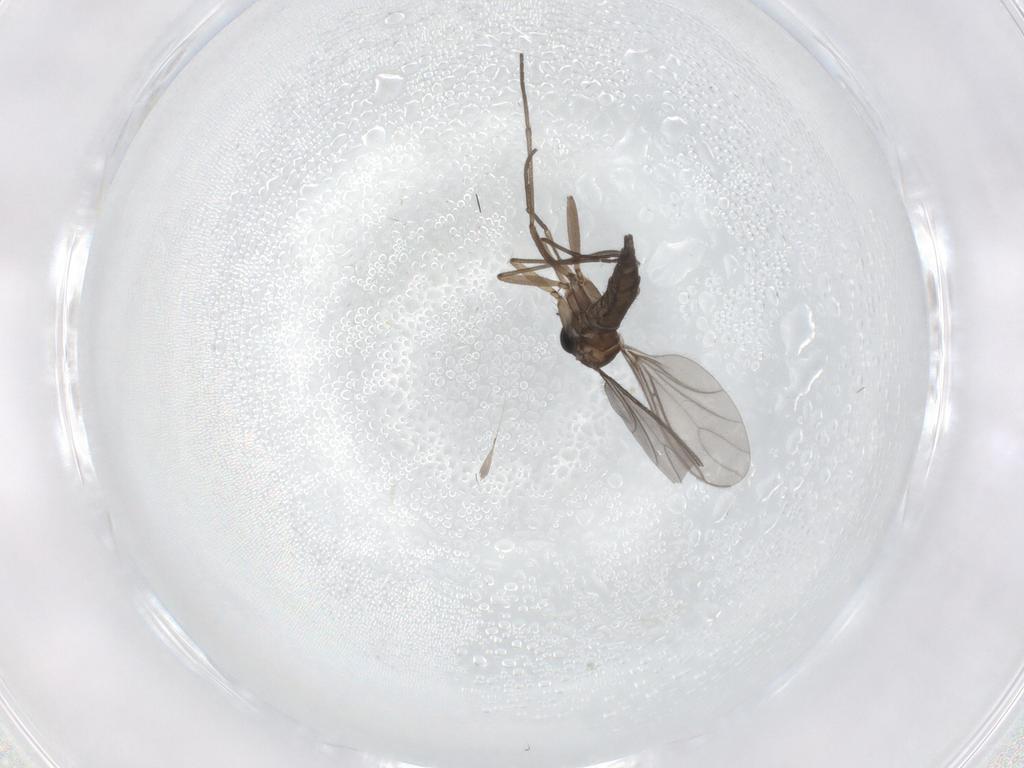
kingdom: Animalia
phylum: Arthropoda
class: Insecta
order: Diptera
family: Sciaridae
